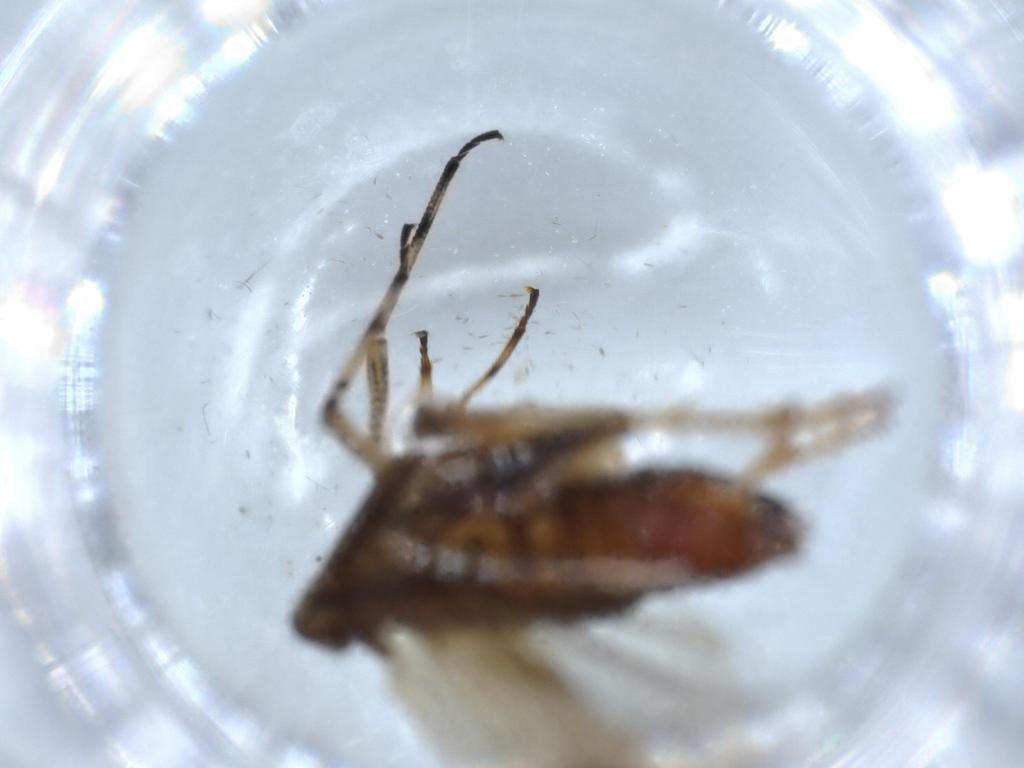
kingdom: Animalia
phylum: Arthropoda
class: Insecta
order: Hemiptera
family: Delphacidae
